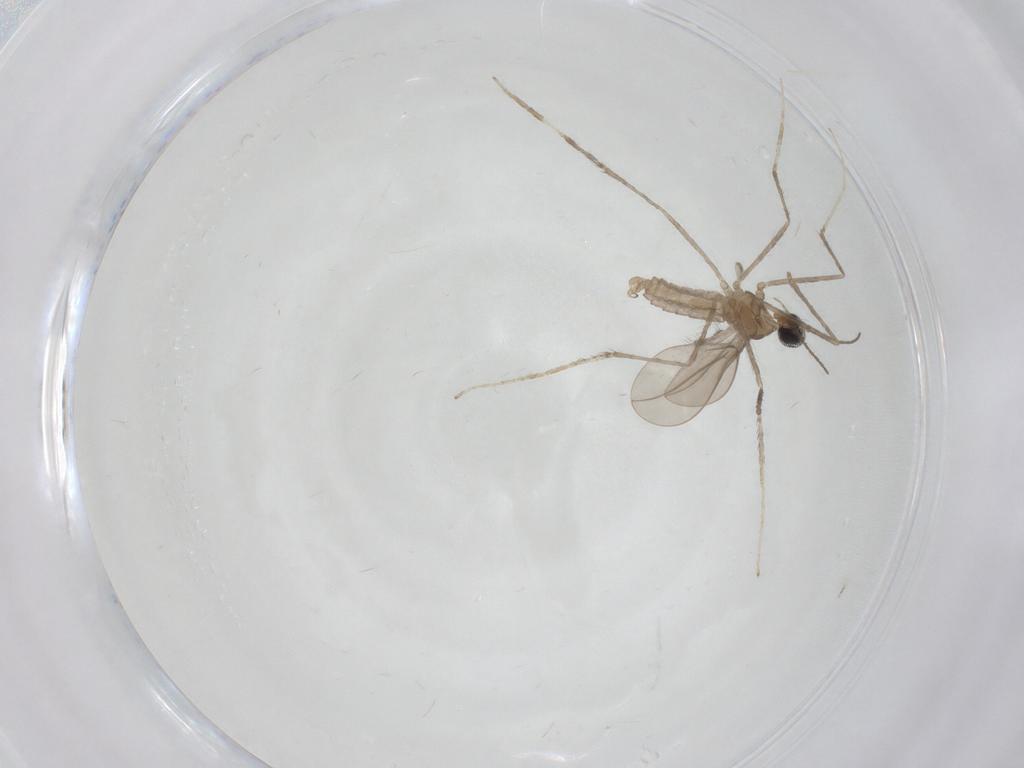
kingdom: Animalia
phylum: Arthropoda
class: Insecta
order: Diptera
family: Cecidomyiidae
